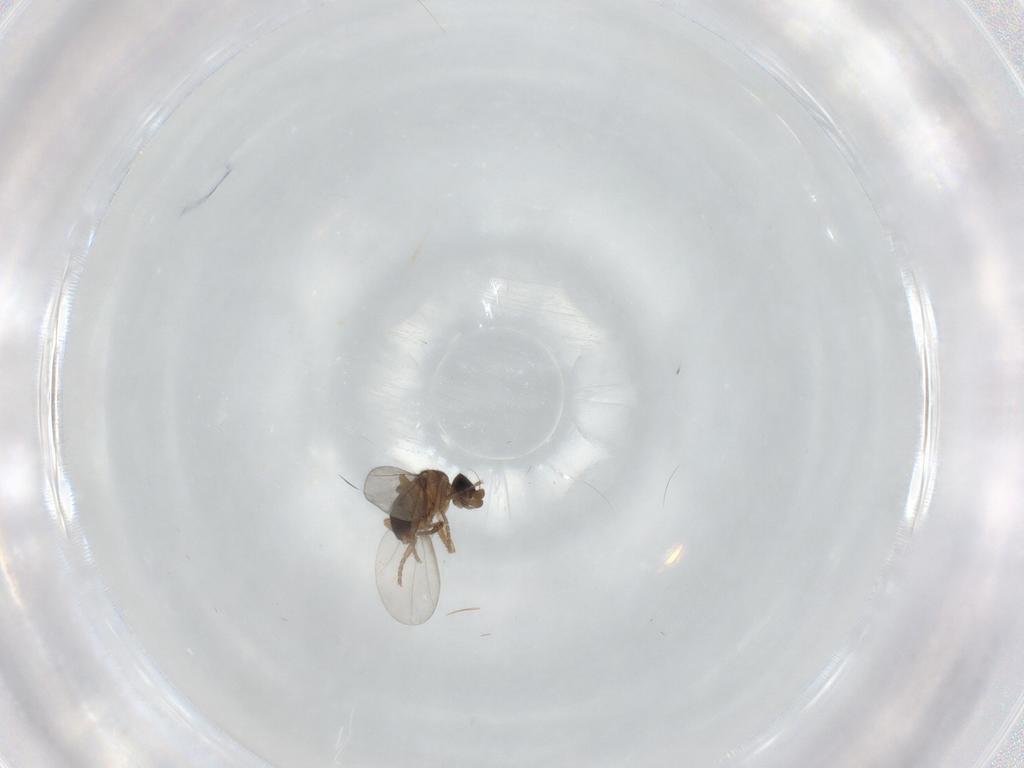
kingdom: Animalia
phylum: Arthropoda
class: Insecta
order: Diptera
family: Phoridae
